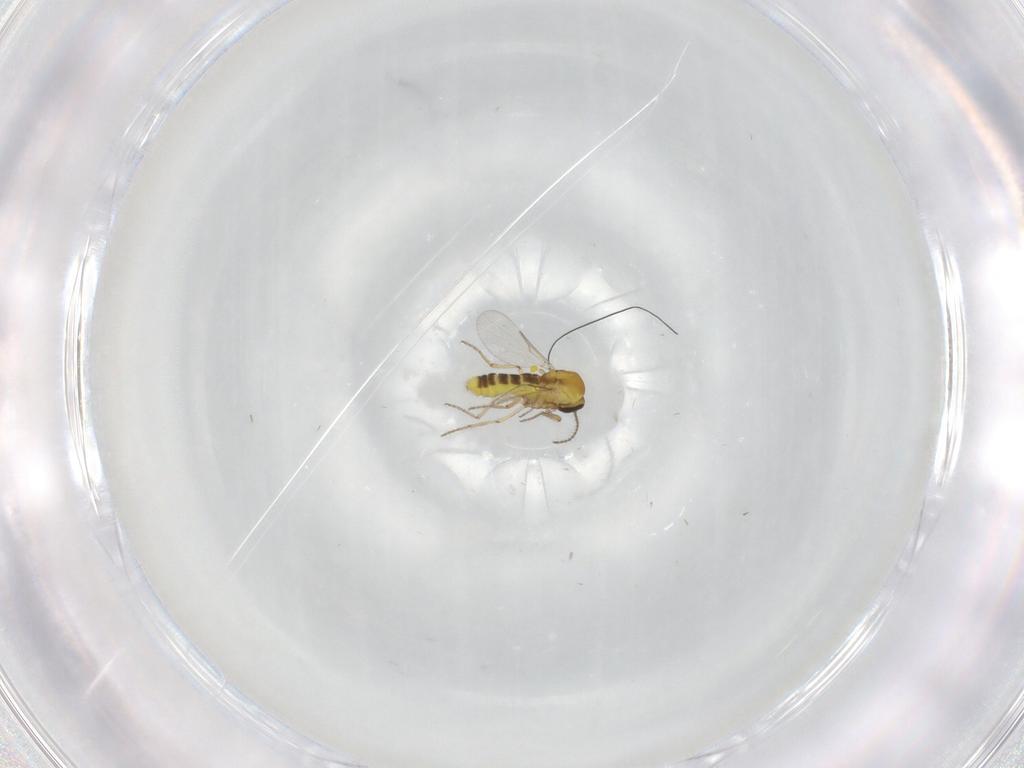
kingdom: Animalia
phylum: Arthropoda
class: Insecta
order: Diptera
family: Ceratopogonidae
